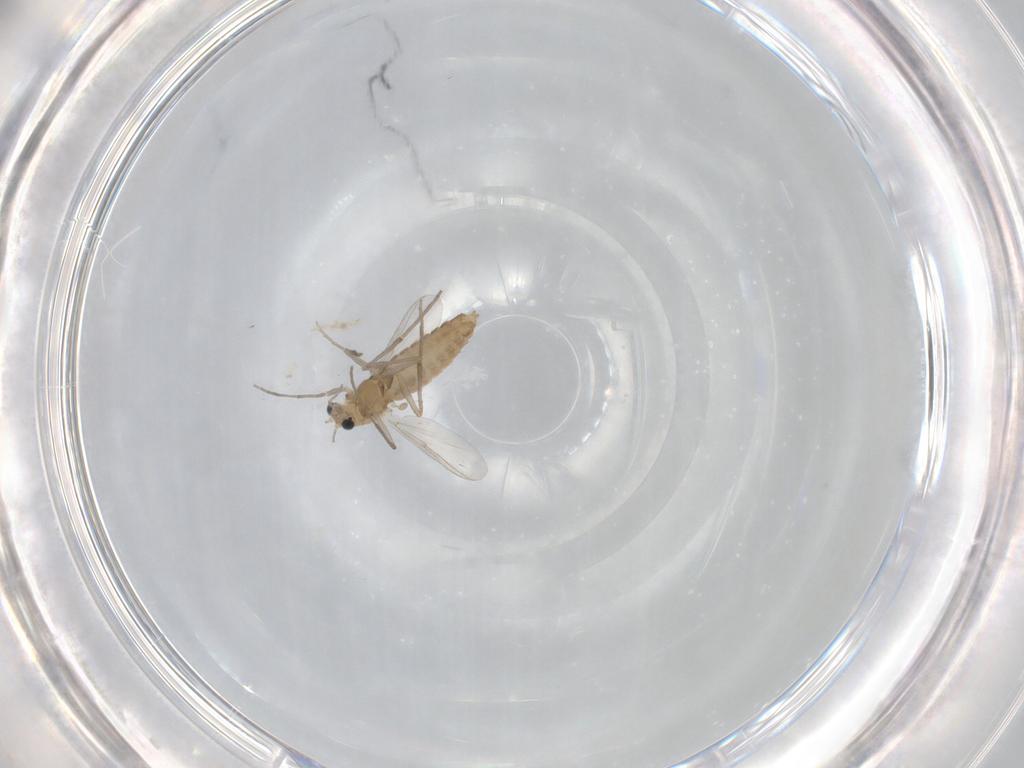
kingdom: Animalia
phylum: Arthropoda
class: Insecta
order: Diptera
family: Chironomidae
